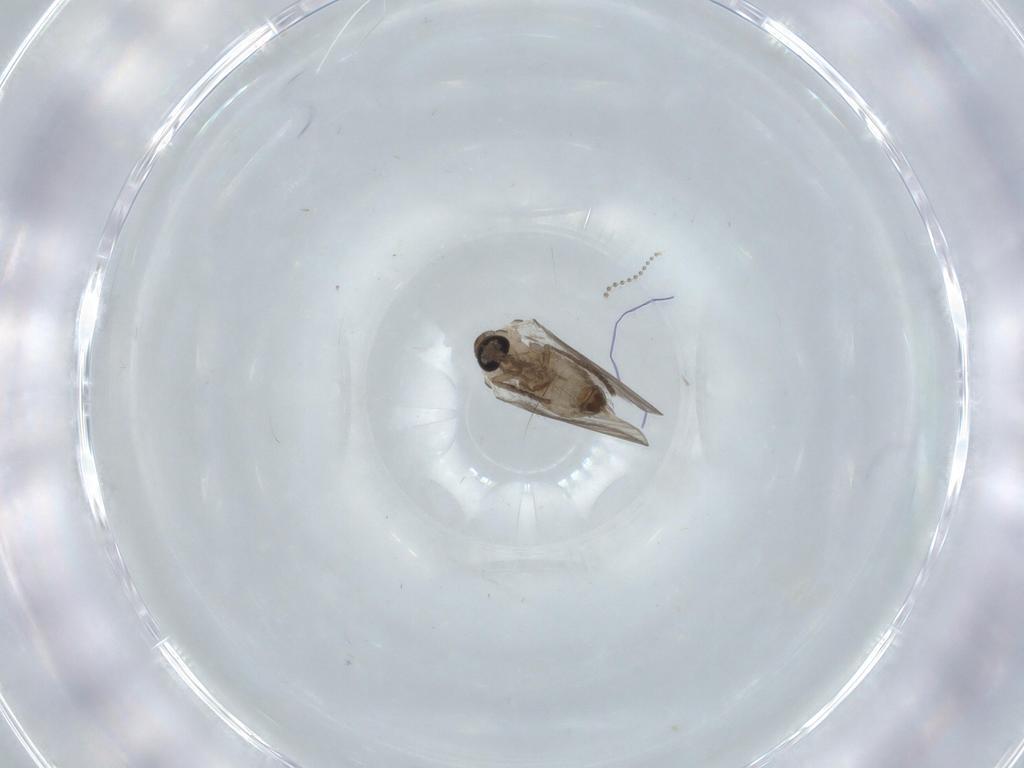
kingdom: Animalia
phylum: Arthropoda
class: Insecta
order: Diptera
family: Psychodidae
